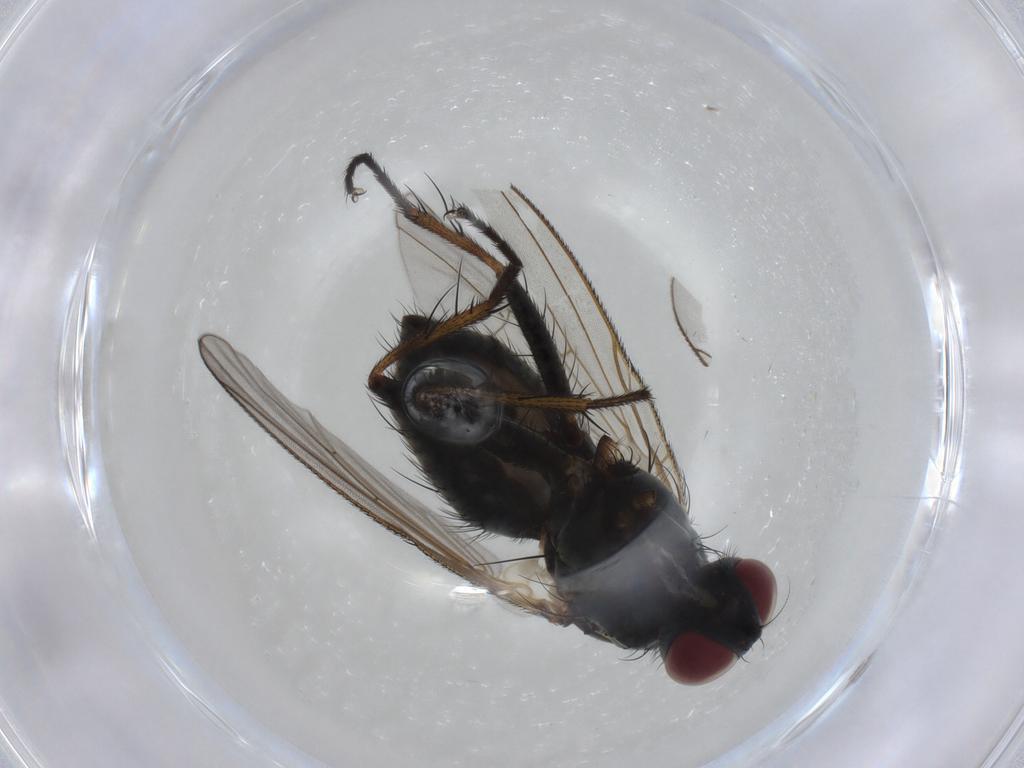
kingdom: Animalia
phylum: Arthropoda
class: Insecta
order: Diptera
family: Muscidae
